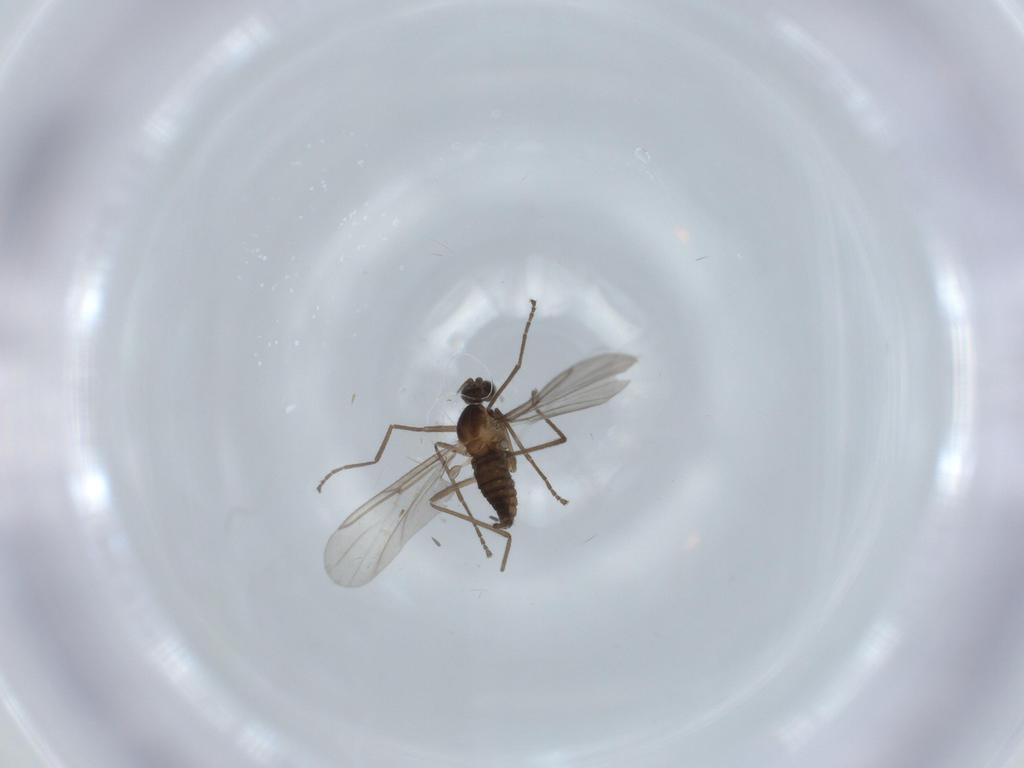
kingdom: Animalia
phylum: Arthropoda
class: Insecta
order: Diptera
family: Cecidomyiidae
